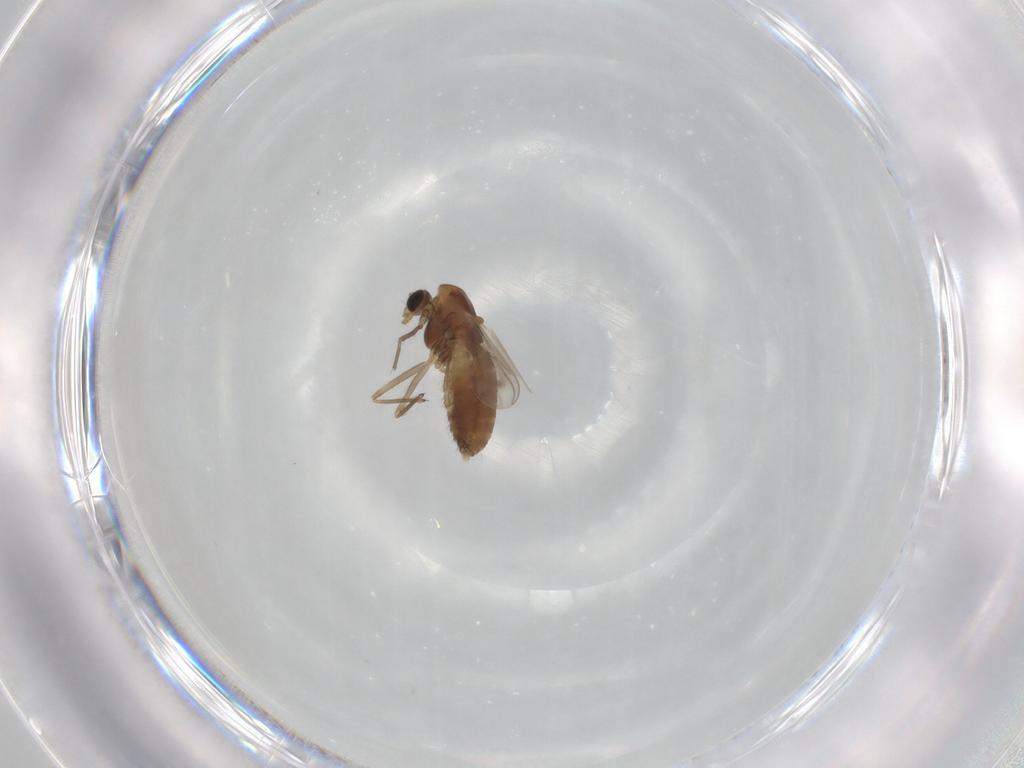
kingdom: Animalia
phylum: Arthropoda
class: Insecta
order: Diptera
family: Chironomidae
